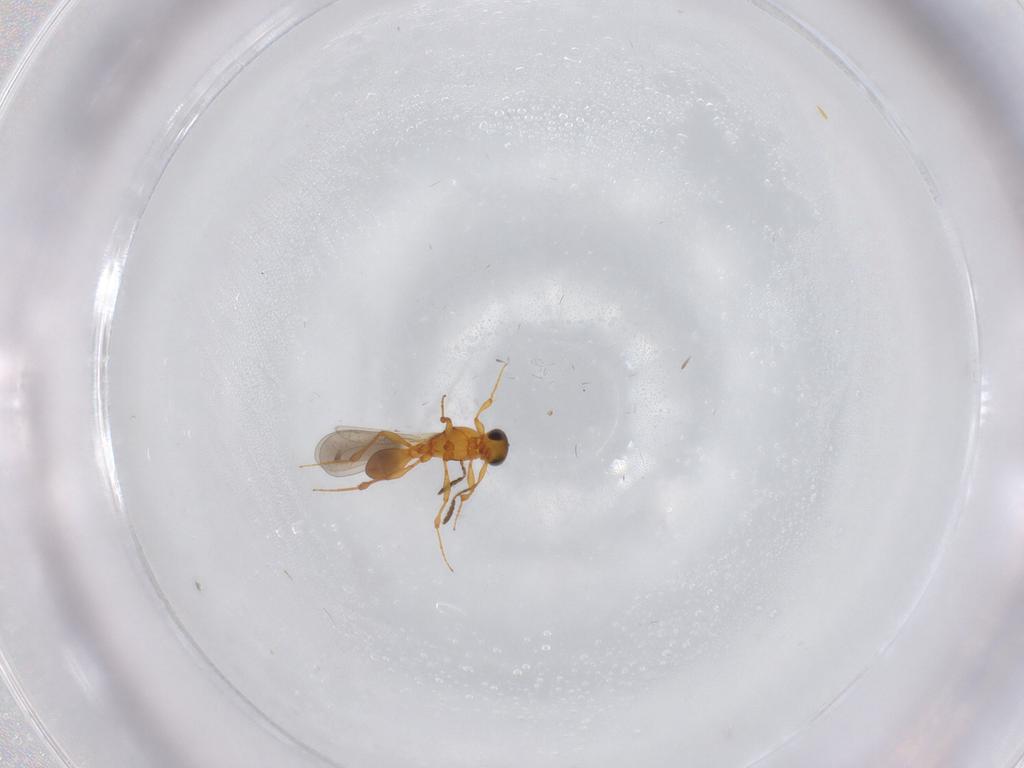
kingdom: Animalia
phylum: Arthropoda
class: Insecta
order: Hymenoptera
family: Platygastridae
